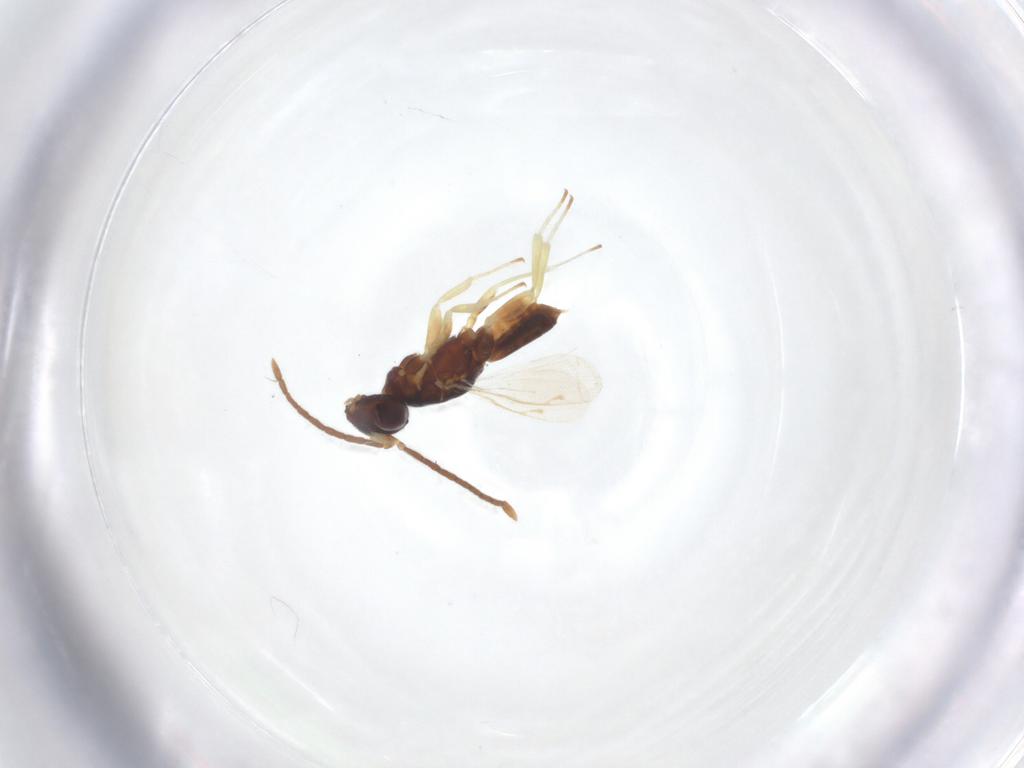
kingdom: Animalia
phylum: Arthropoda
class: Insecta
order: Hymenoptera
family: Eupelmidae
